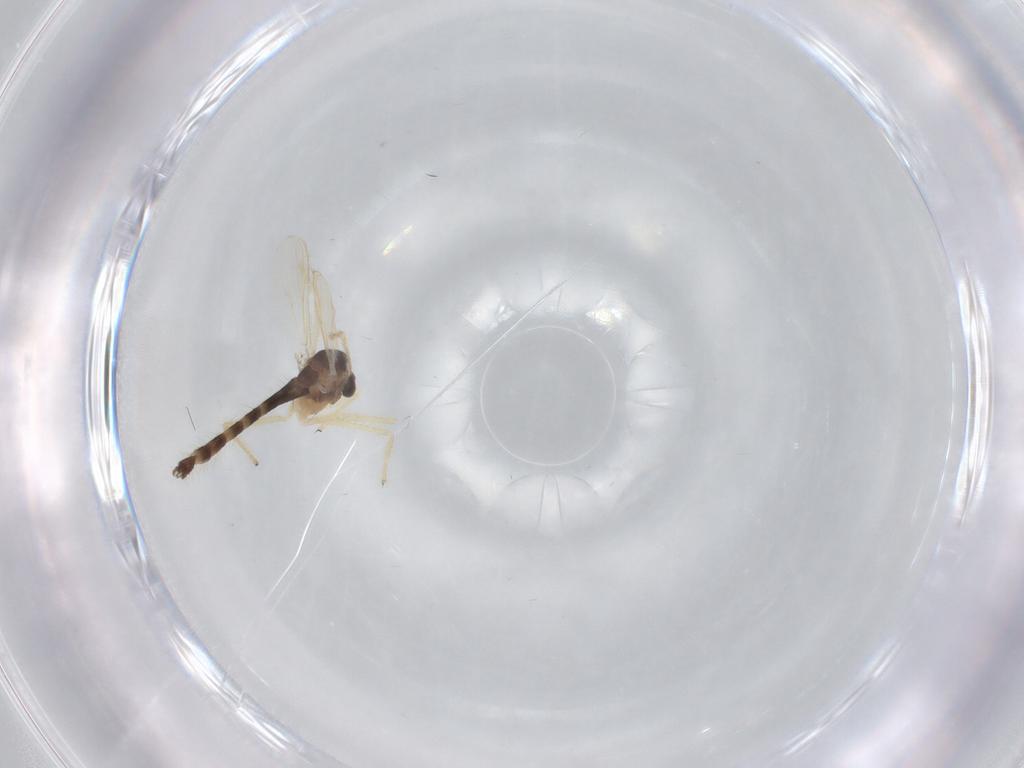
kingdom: Animalia
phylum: Arthropoda
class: Insecta
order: Diptera
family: Chironomidae
